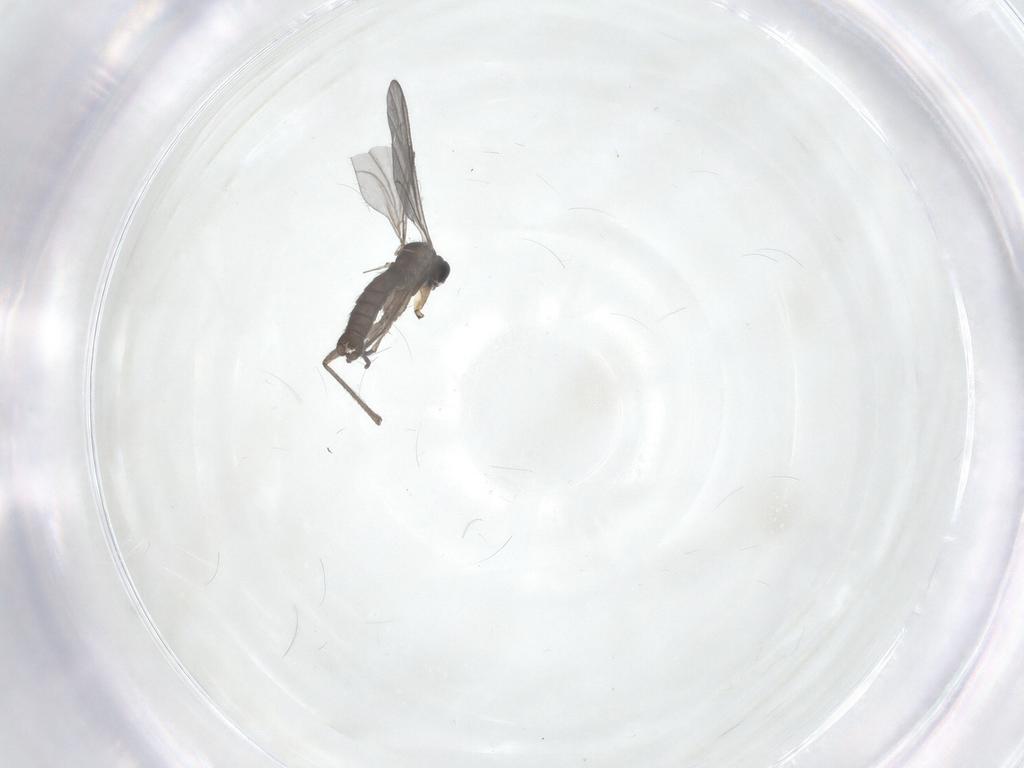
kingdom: Animalia
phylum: Arthropoda
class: Insecta
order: Diptera
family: Sciaridae
